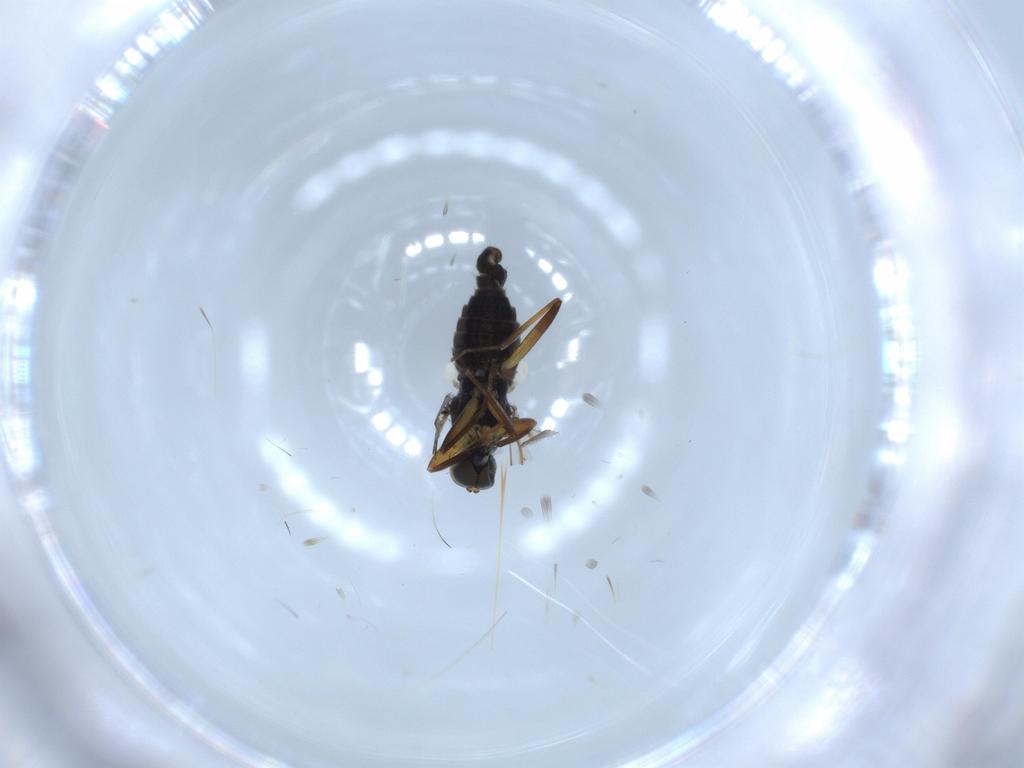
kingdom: Animalia
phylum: Arthropoda
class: Insecta
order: Diptera
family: Hybotidae
